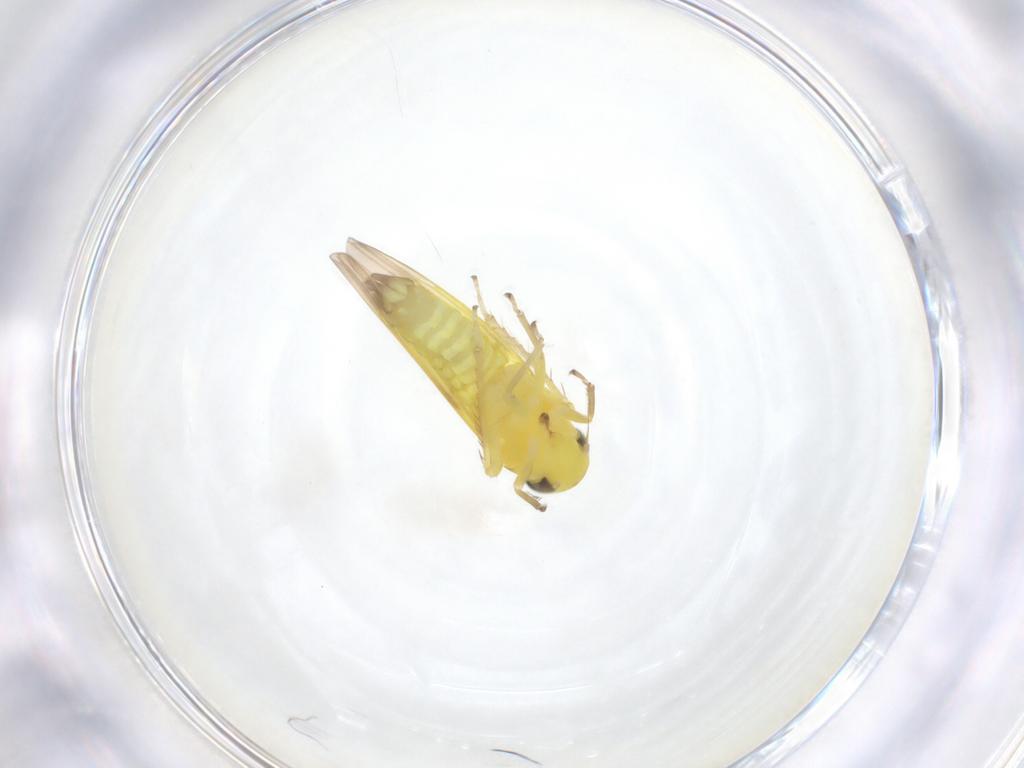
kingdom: Animalia
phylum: Arthropoda
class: Insecta
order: Hemiptera
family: Cicadellidae
